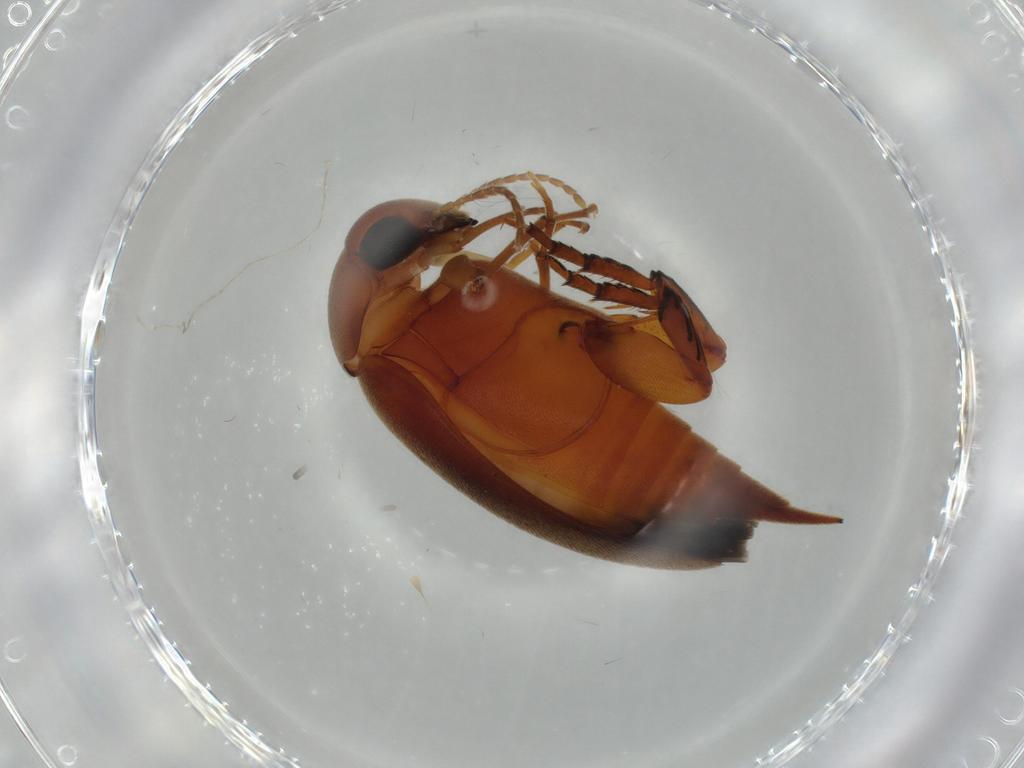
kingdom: Animalia
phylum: Arthropoda
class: Insecta
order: Coleoptera
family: Mordellidae
